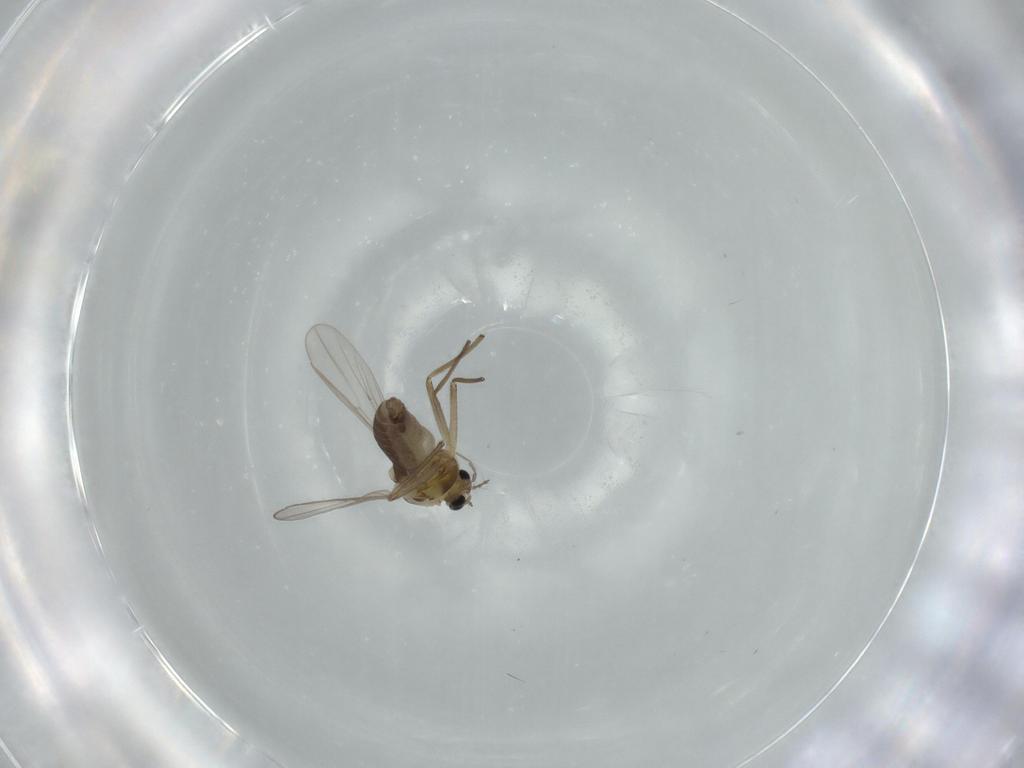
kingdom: Animalia
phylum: Arthropoda
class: Insecta
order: Diptera
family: Chironomidae
